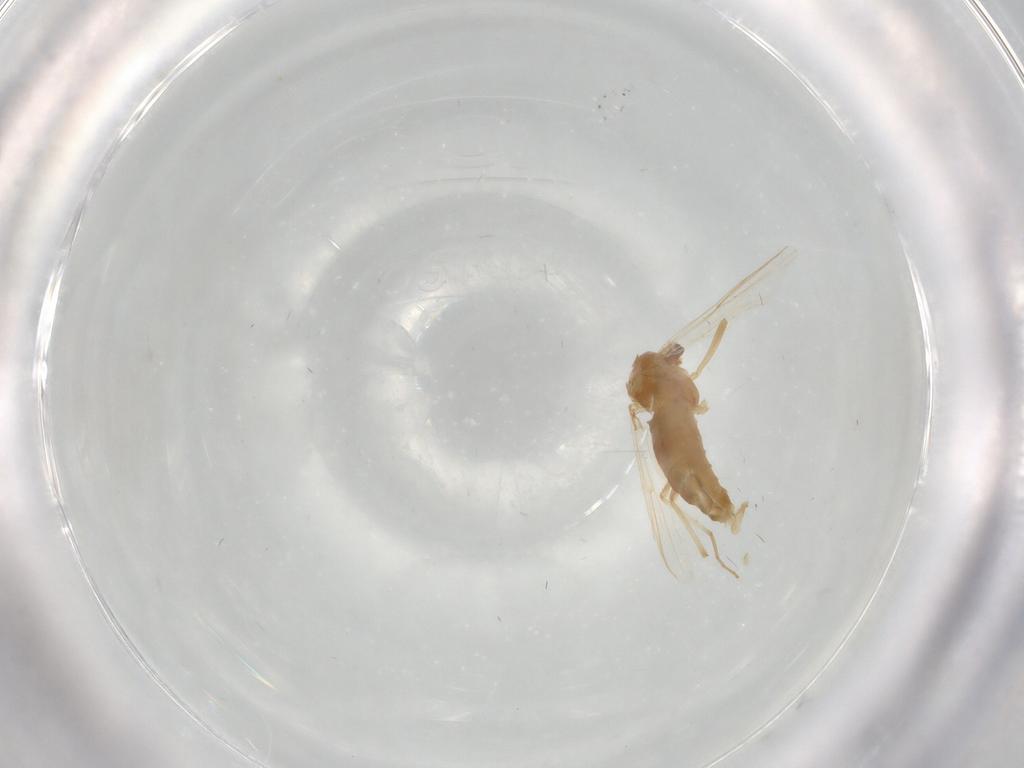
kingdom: Animalia
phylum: Arthropoda
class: Insecta
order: Diptera
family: Chironomidae
